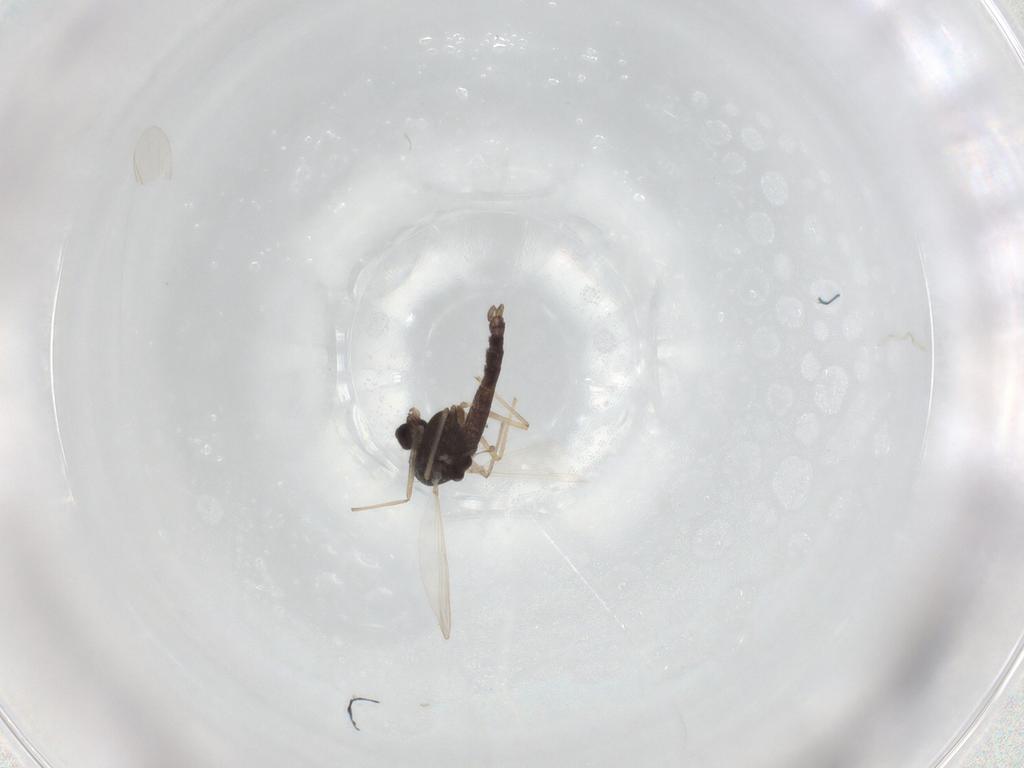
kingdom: Animalia
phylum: Arthropoda
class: Insecta
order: Diptera
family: Chironomidae
